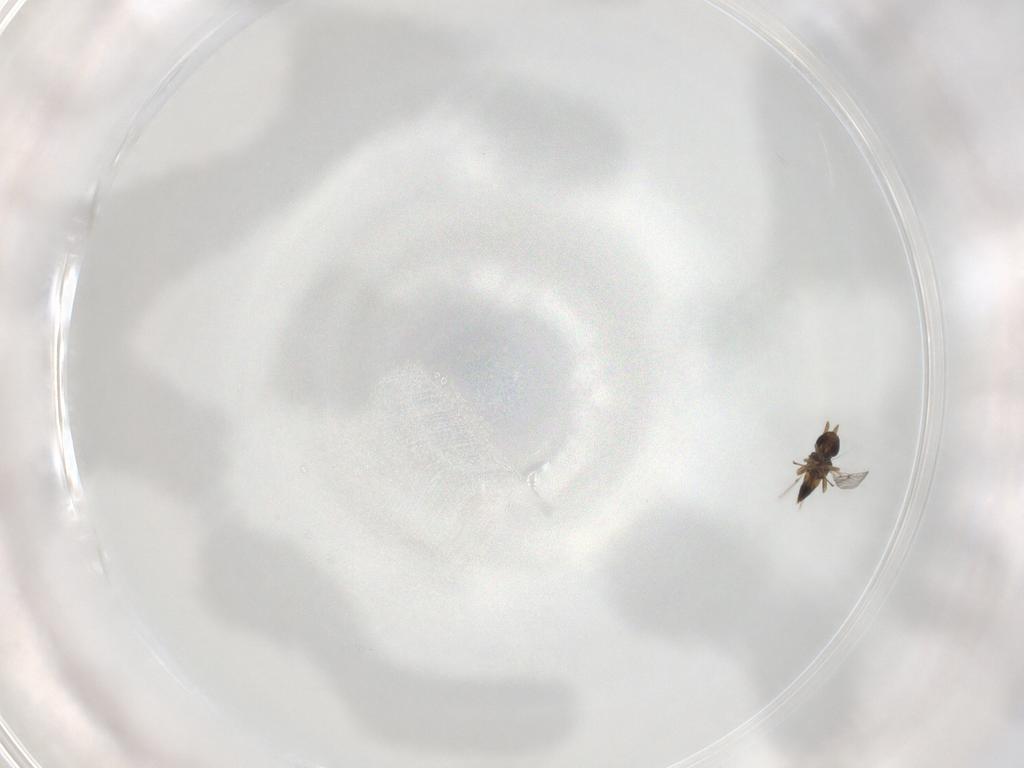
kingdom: Animalia
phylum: Arthropoda
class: Insecta
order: Hymenoptera
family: Eulophidae
